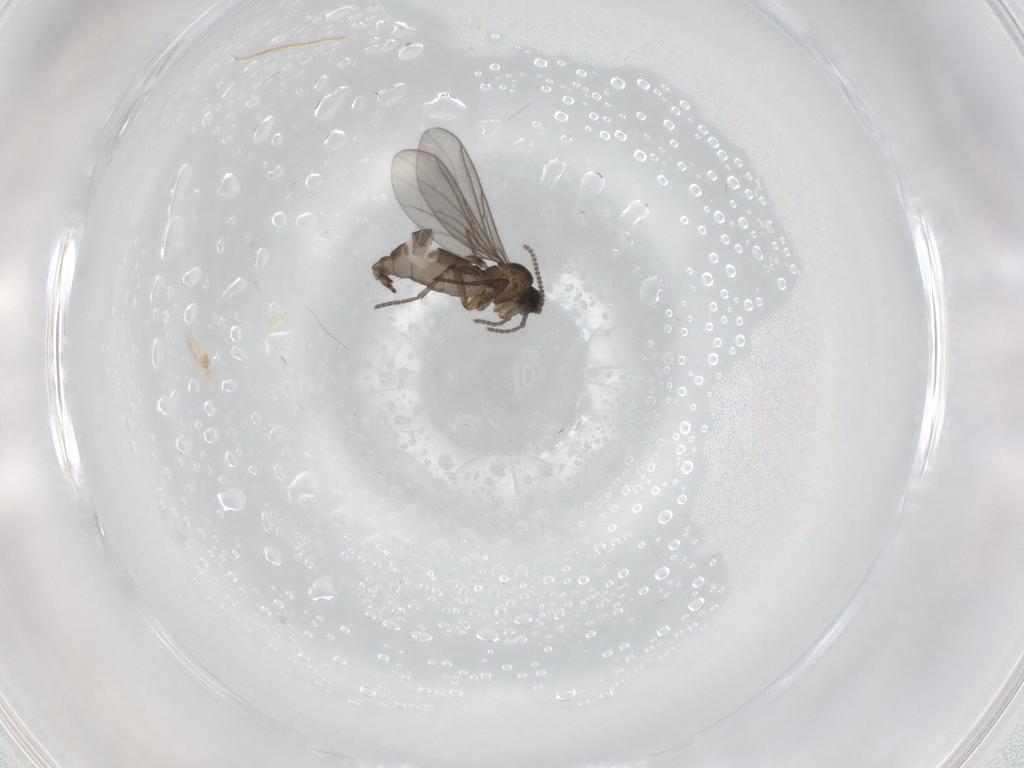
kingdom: Animalia
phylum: Arthropoda
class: Insecta
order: Diptera
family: Phoridae
